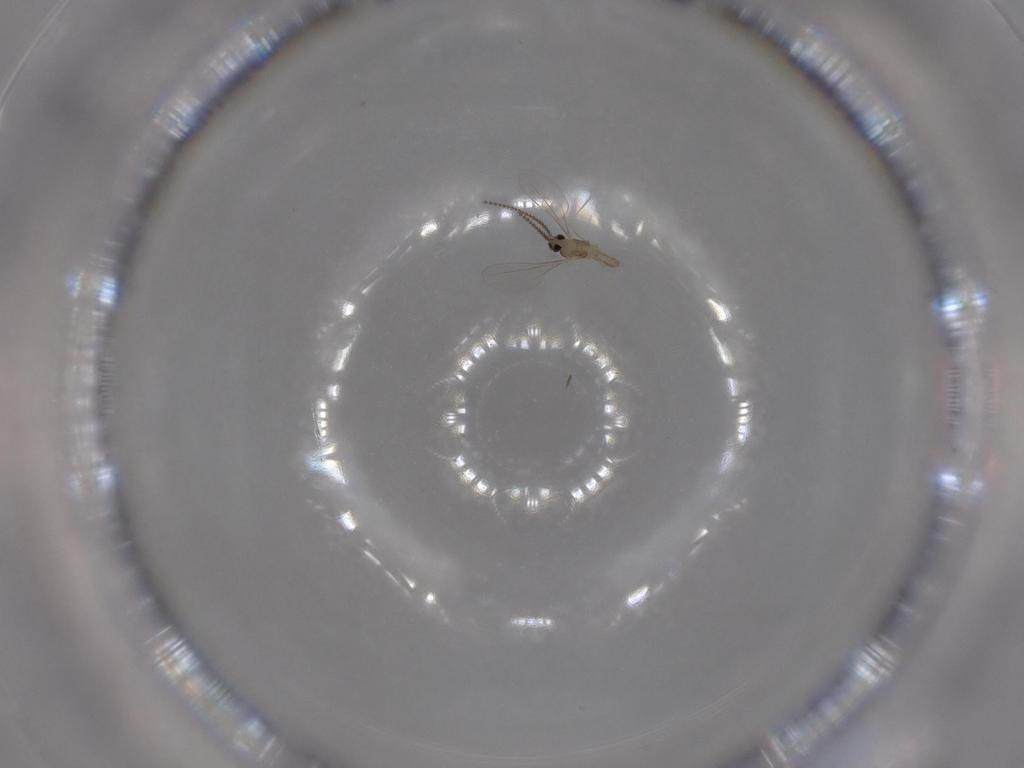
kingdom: Animalia
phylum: Arthropoda
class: Insecta
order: Diptera
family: Cecidomyiidae
